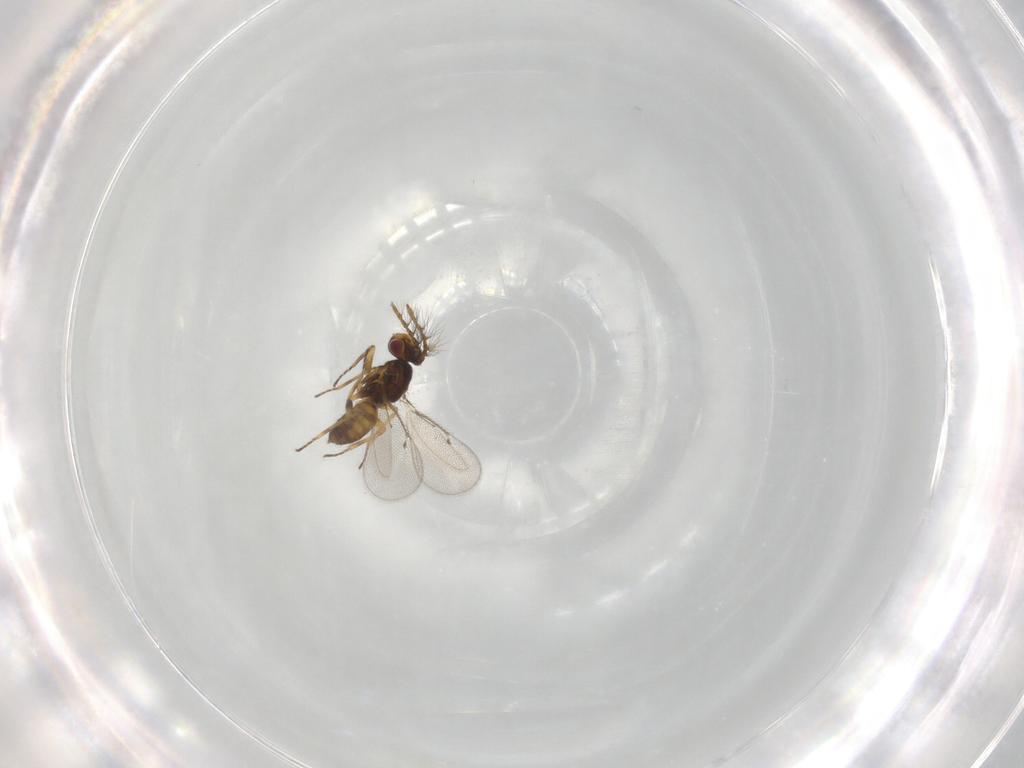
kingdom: Animalia
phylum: Arthropoda
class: Insecta
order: Hymenoptera
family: Eulophidae
